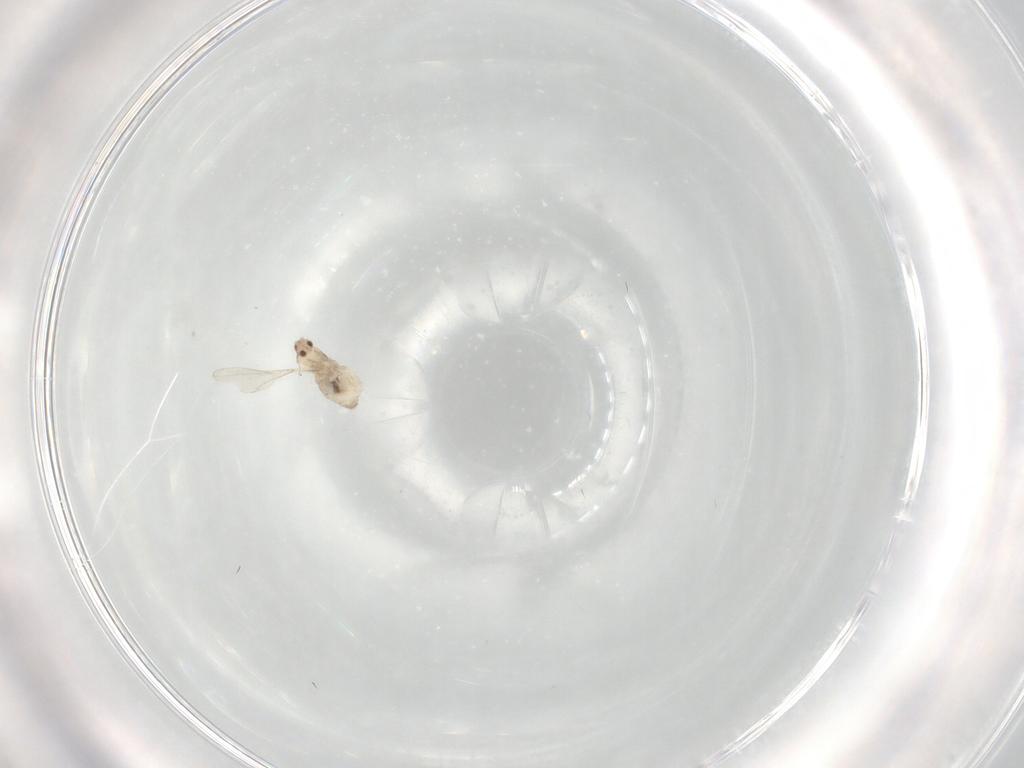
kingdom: Animalia
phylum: Arthropoda
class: Insecta
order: Diptera
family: Cecidomyiidae
